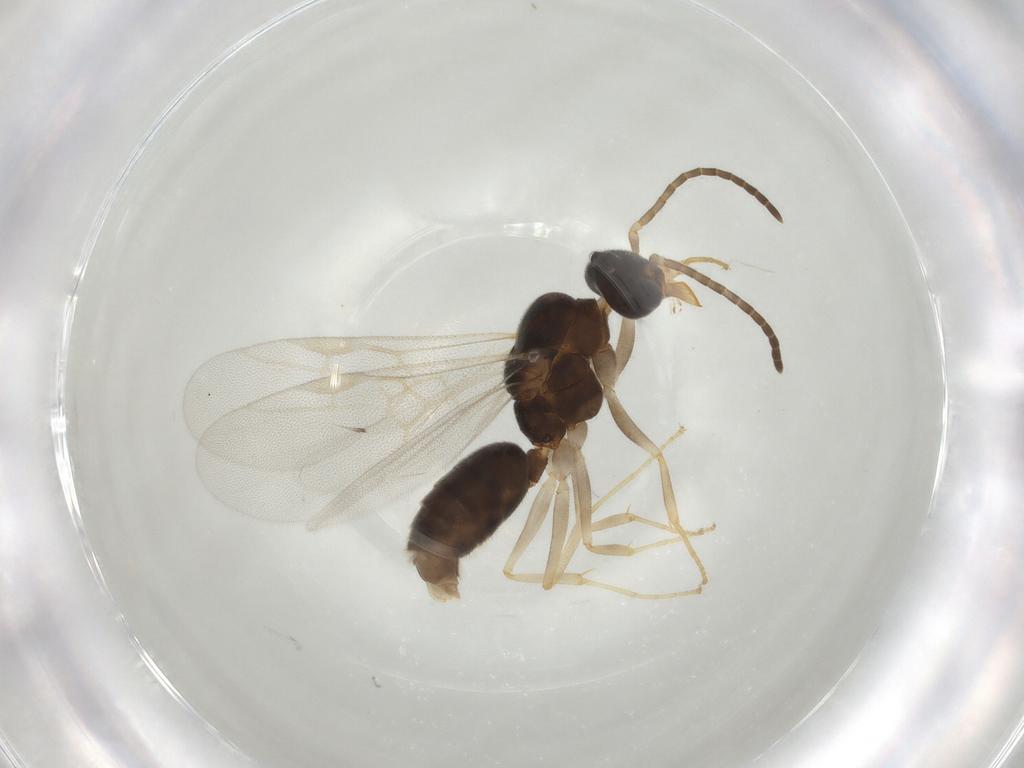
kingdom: Animalia
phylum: Arthropoda
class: Insecta
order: Hymenoptera
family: Formicidae
